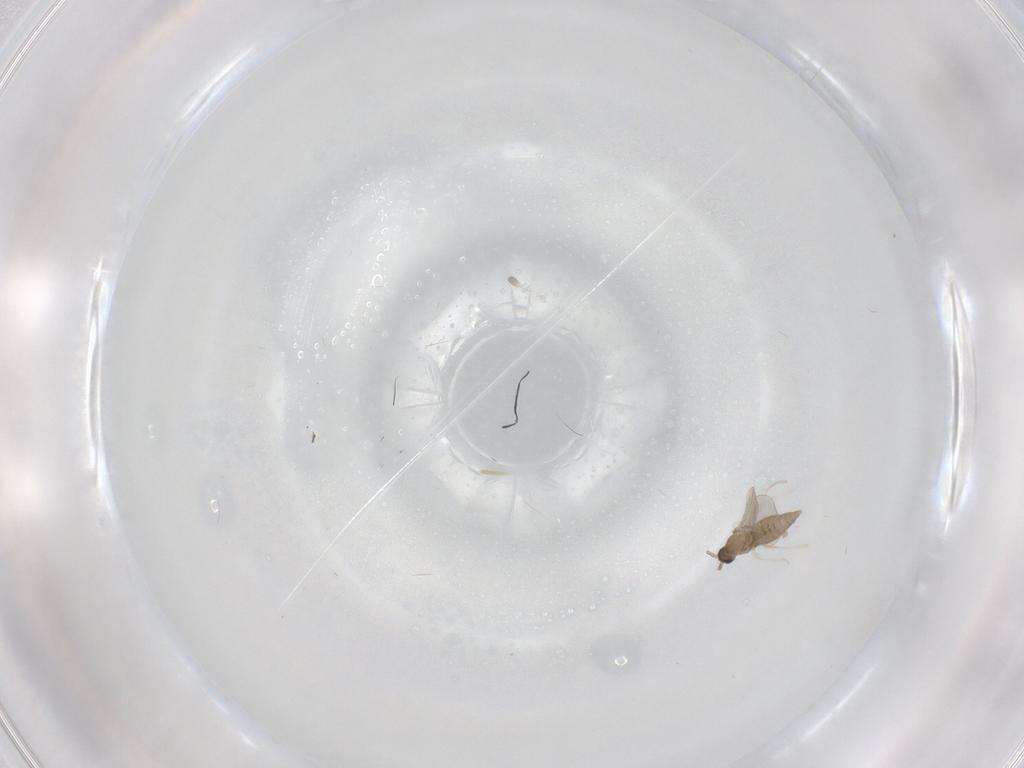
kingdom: Animalia
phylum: Arthropoda
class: Insecta
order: Diptera
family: Cecidomyiidae
